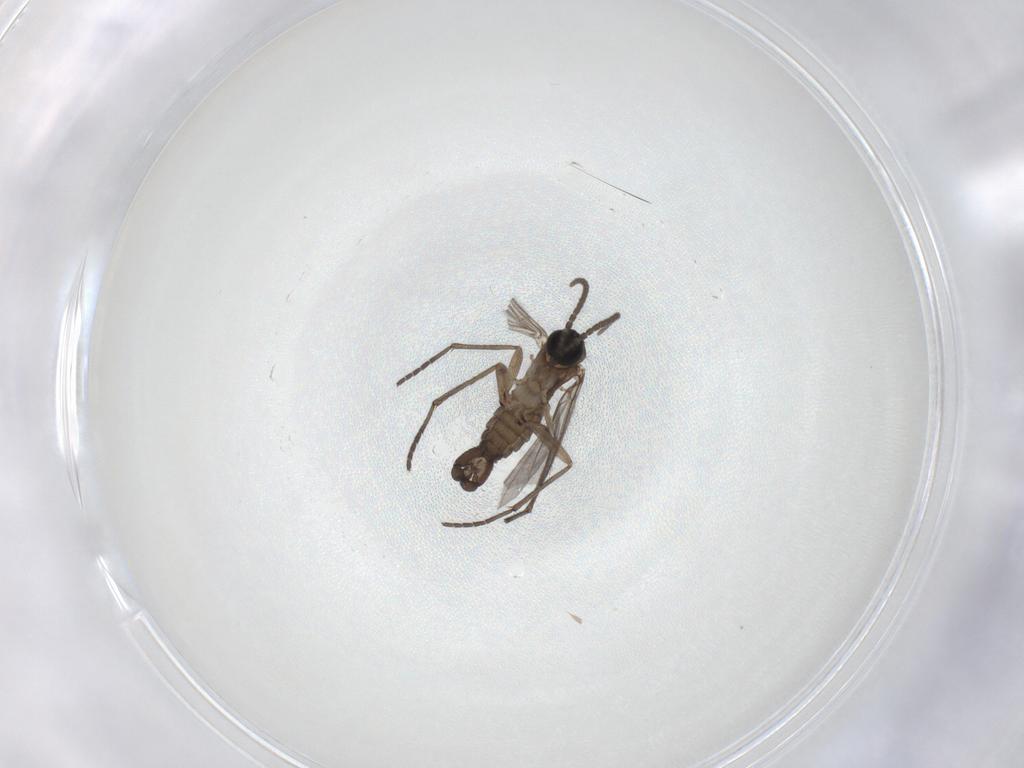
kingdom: Animalia
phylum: Arthropoda
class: Insecta
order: Diptera
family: Sciaridae
